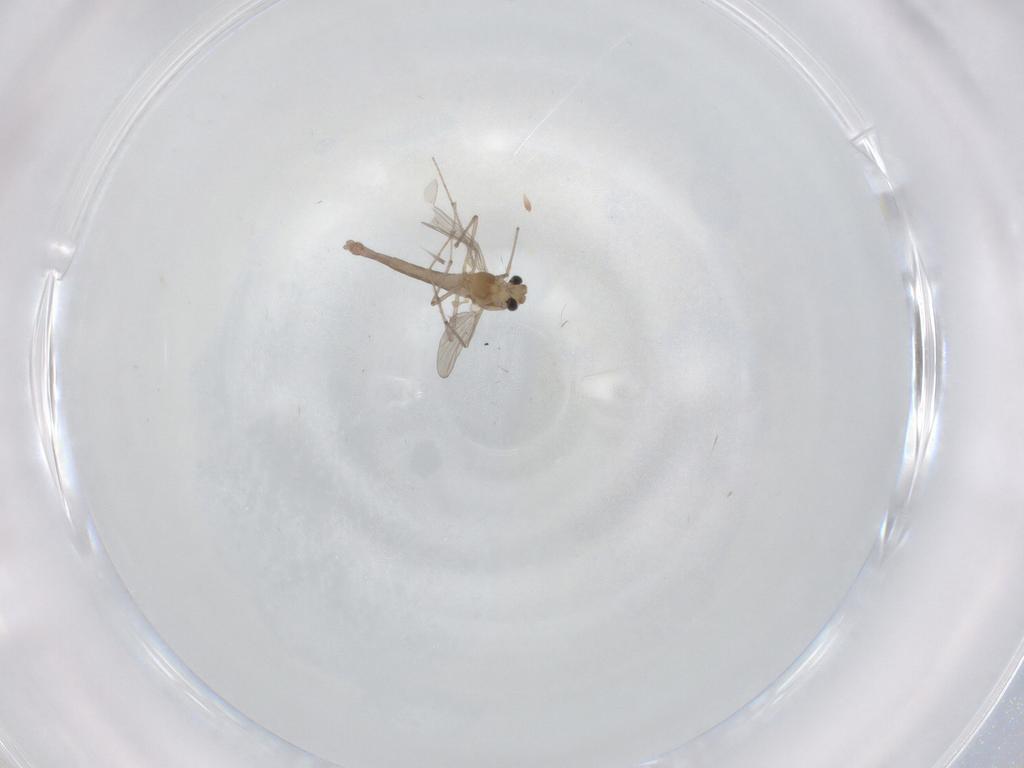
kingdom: Animalia
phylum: Arthropoda
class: Insecta
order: Diptera
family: Chironomidae
